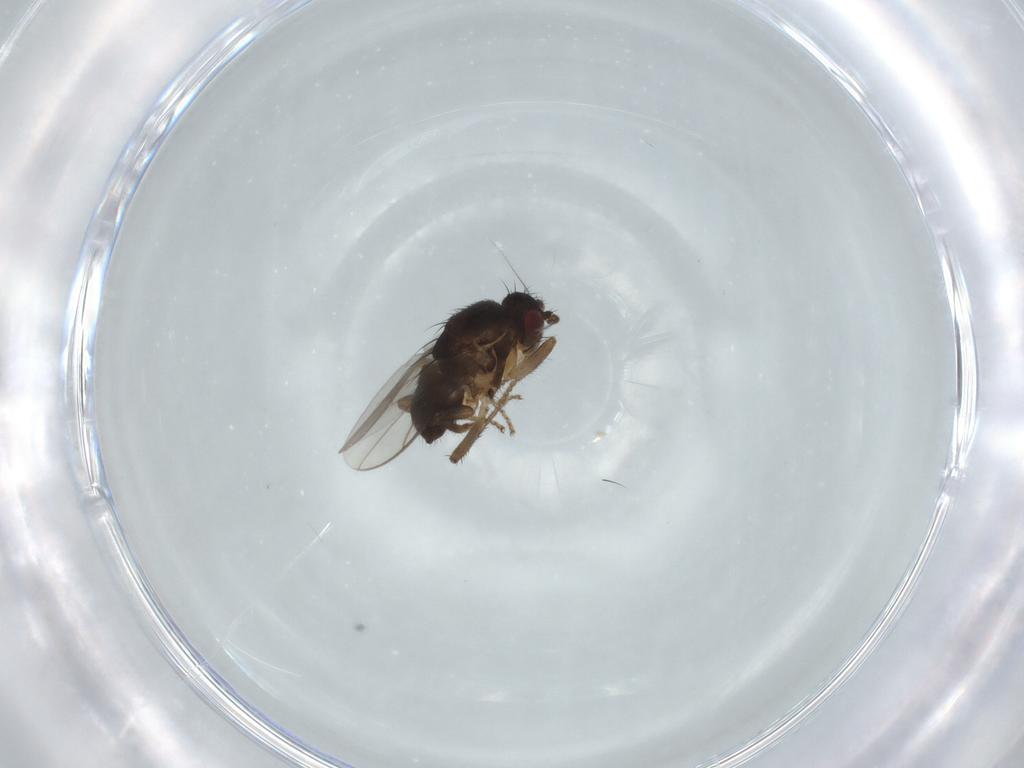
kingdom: Animalia
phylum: Arthropoda
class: Insecta
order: Diptera
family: Sphaeroceridae
